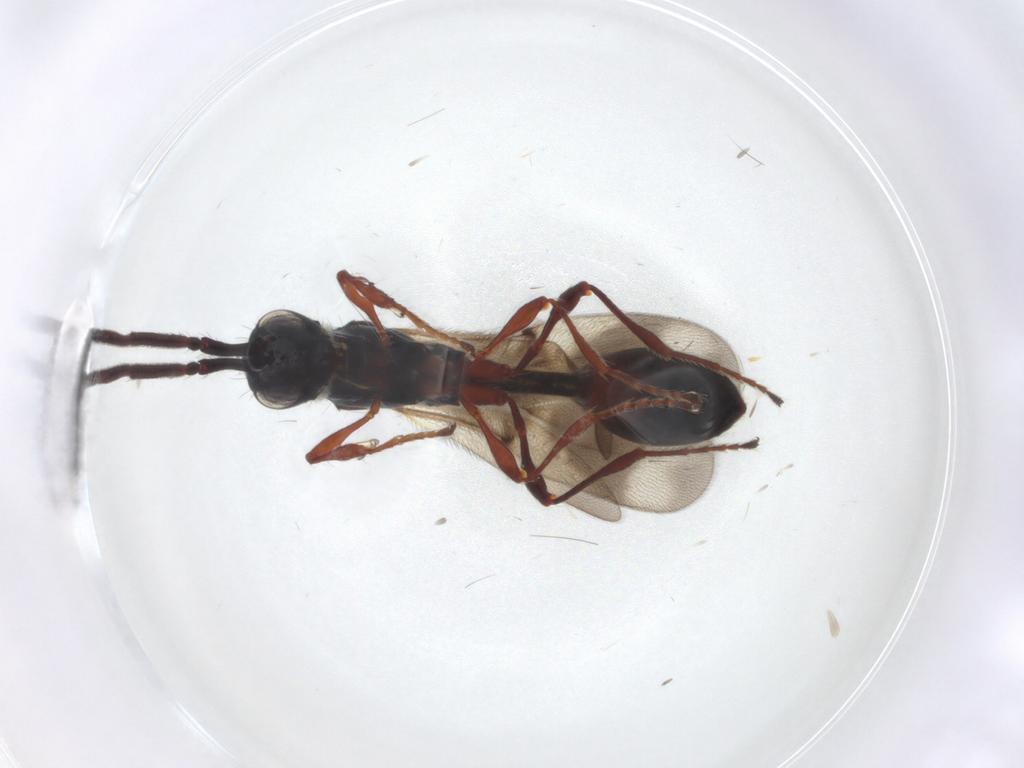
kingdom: Animalia
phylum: Arthropoda
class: Insecta
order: Hymenoptera
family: Diapriidae
